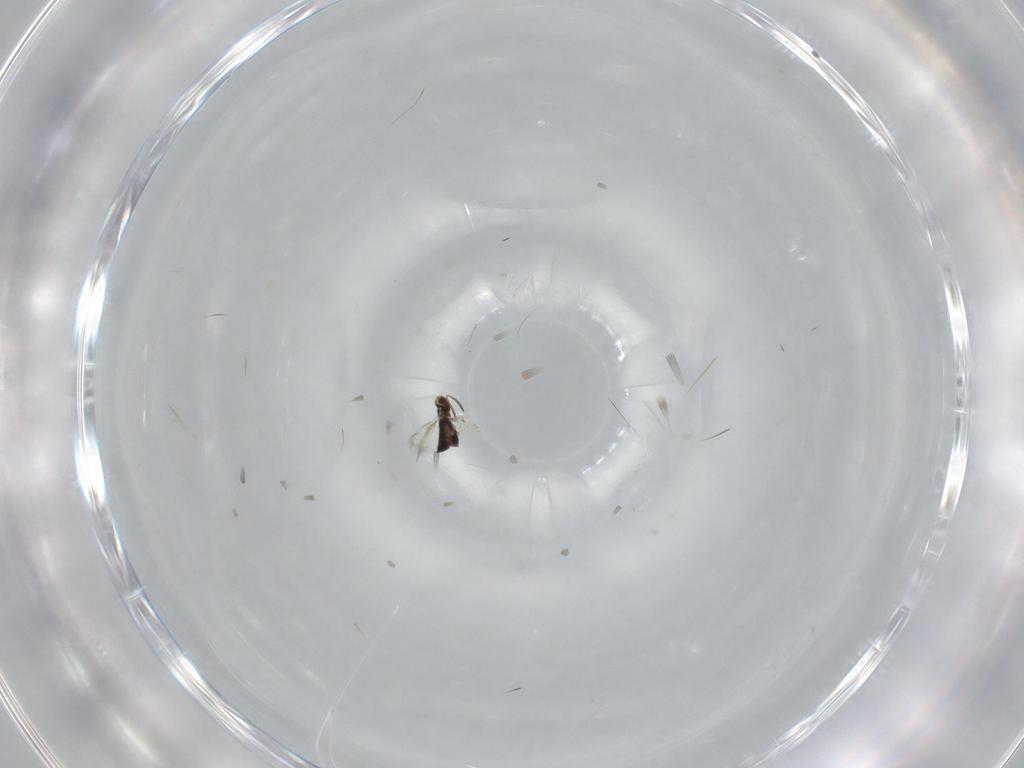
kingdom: Animalia
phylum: Arthropoda
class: Insecta
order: Hymenoptera
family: Signiphoridae
